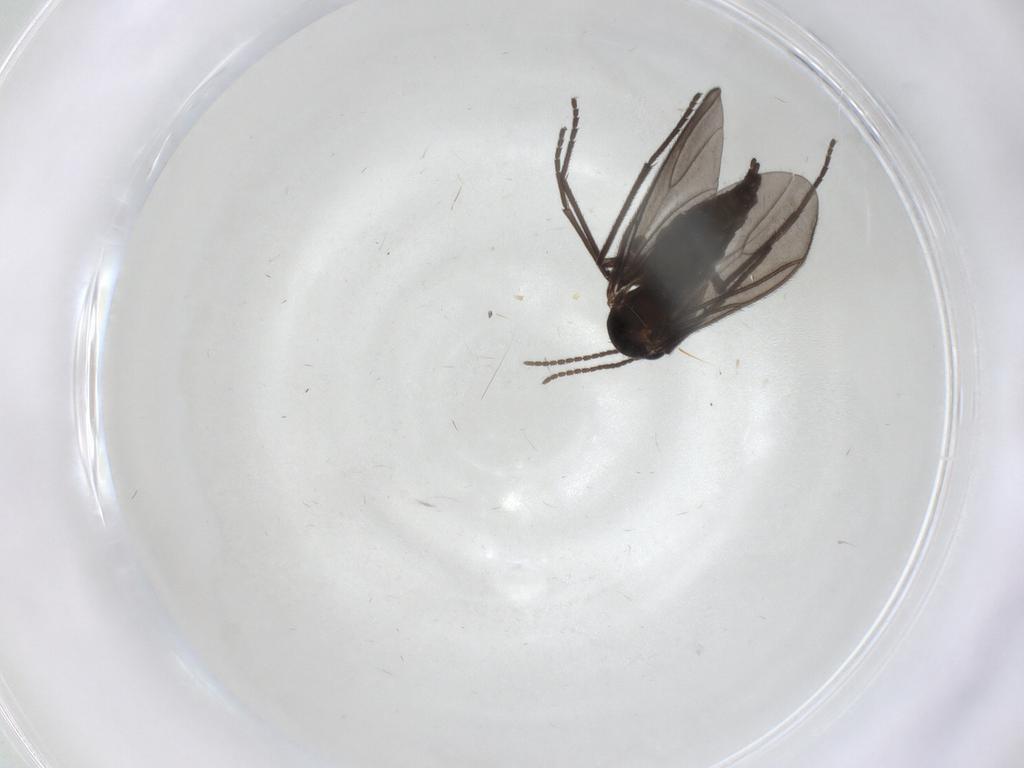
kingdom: Animalia
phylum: Arthropoda
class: Insecta
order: Diptera
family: Sciaridae
